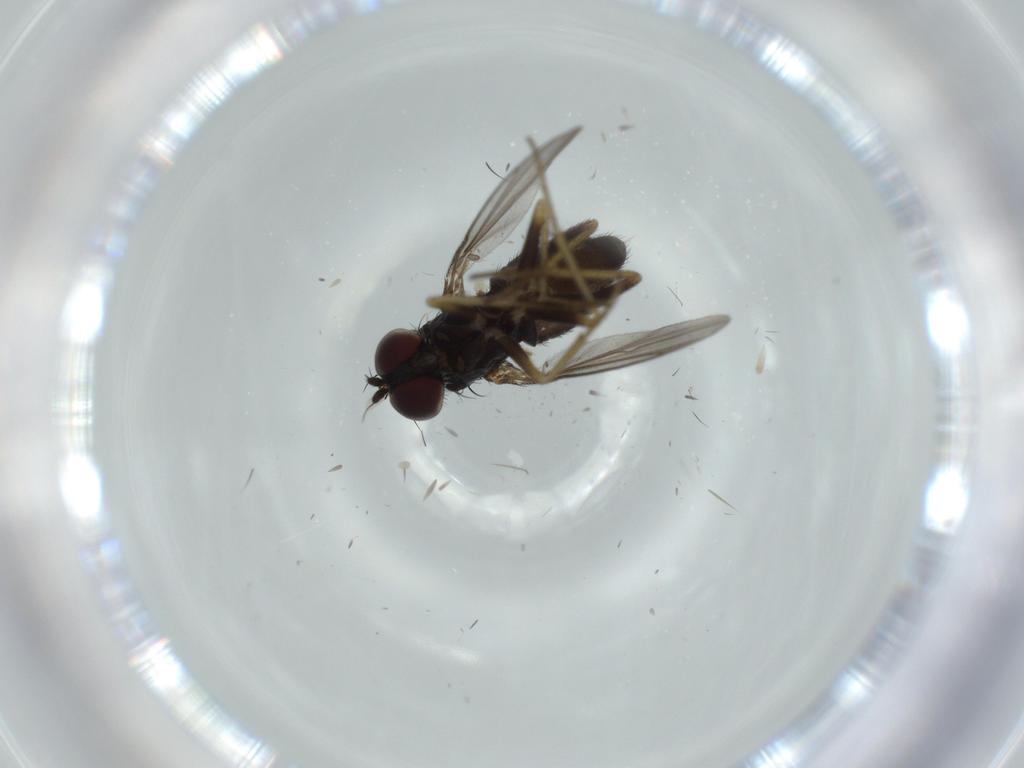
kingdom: Animalia
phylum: Arthropoda
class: Insecta
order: Diptera
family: Dolichopodidae
